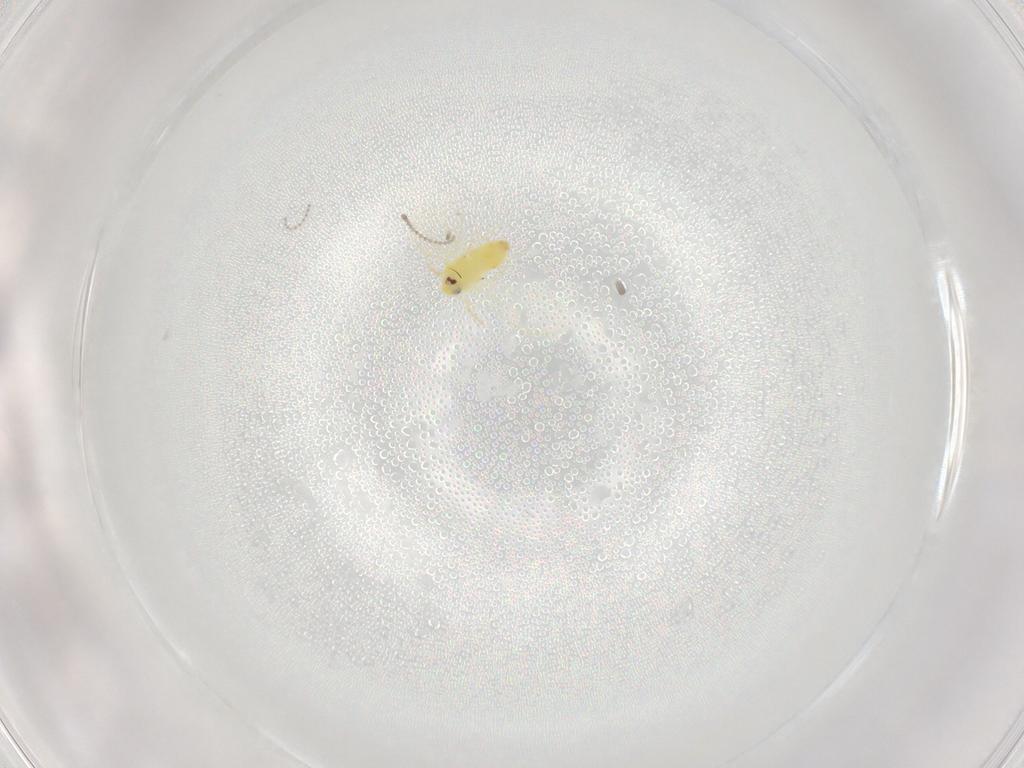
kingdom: Animalia
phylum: Arthropoda
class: Insecta
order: Hemiptera
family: Aleyrodidae
